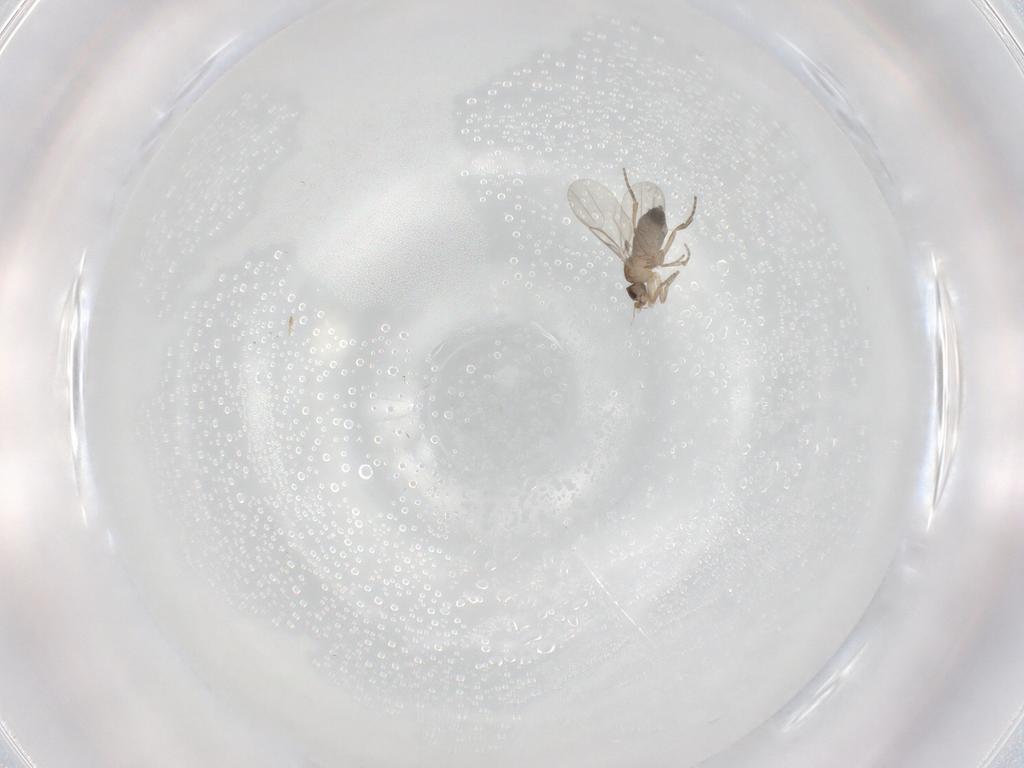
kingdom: Animalia
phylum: Arthropoda
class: Insecta
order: Diptera
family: Phoridae
